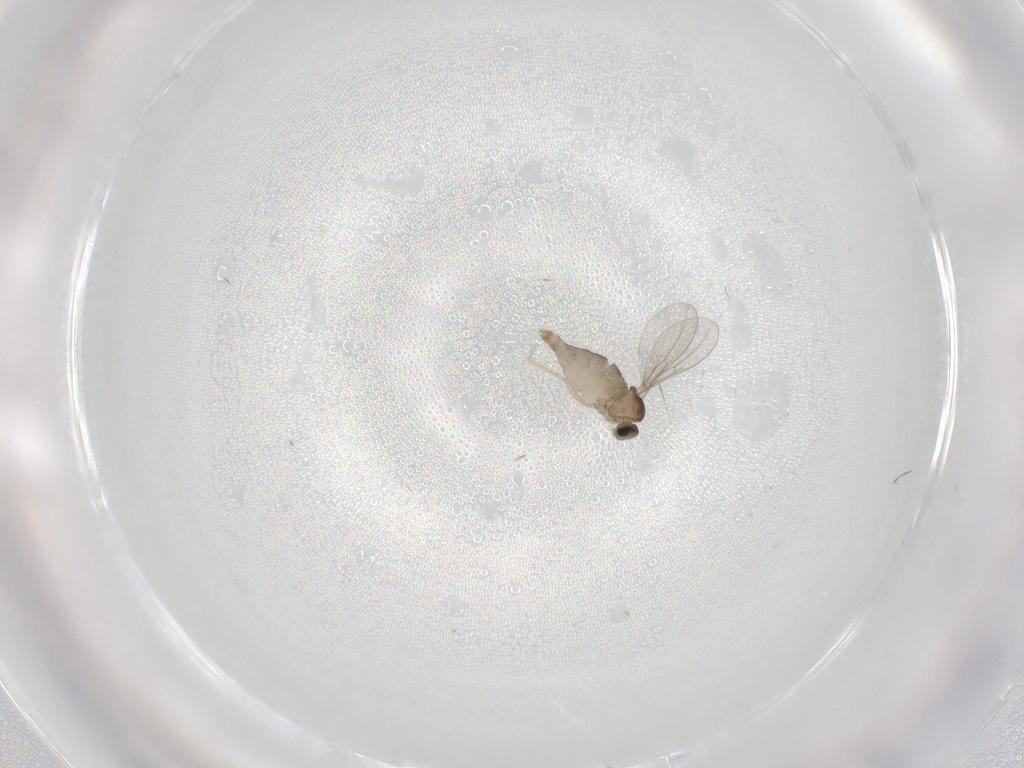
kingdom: Animalia
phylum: Arthropoda
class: Insecta
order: Diptera
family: Cecidomyiidae
